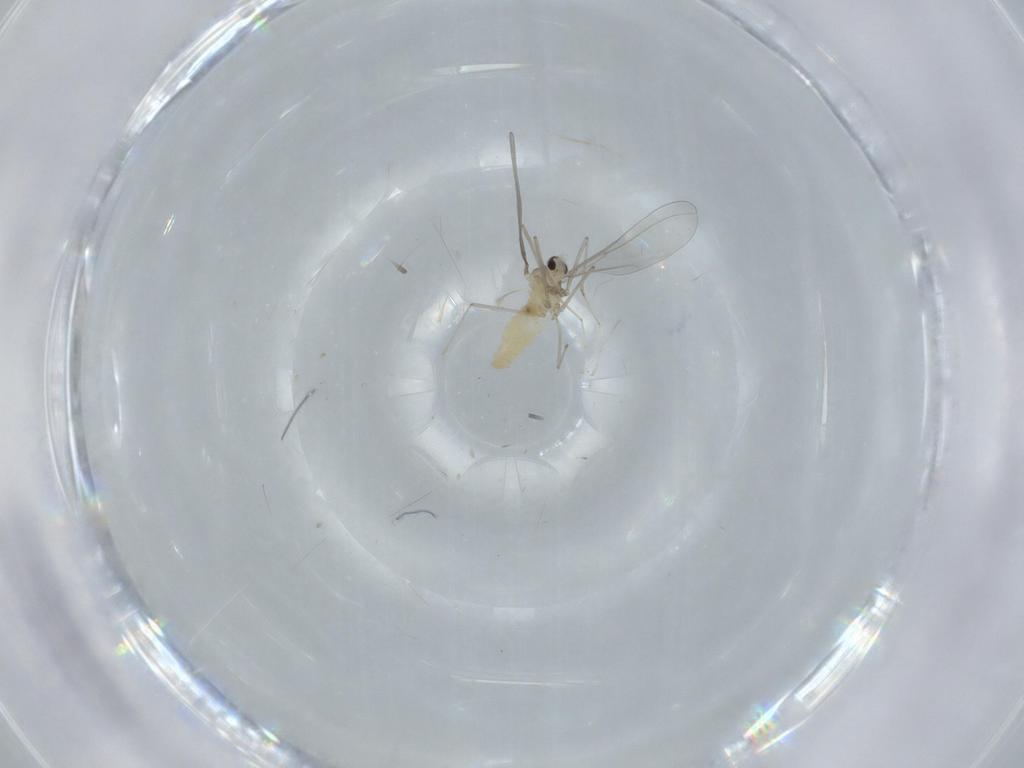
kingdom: Animalia
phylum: Arthropoda
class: Insecta
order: Diptera
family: Cecidomyiidae
